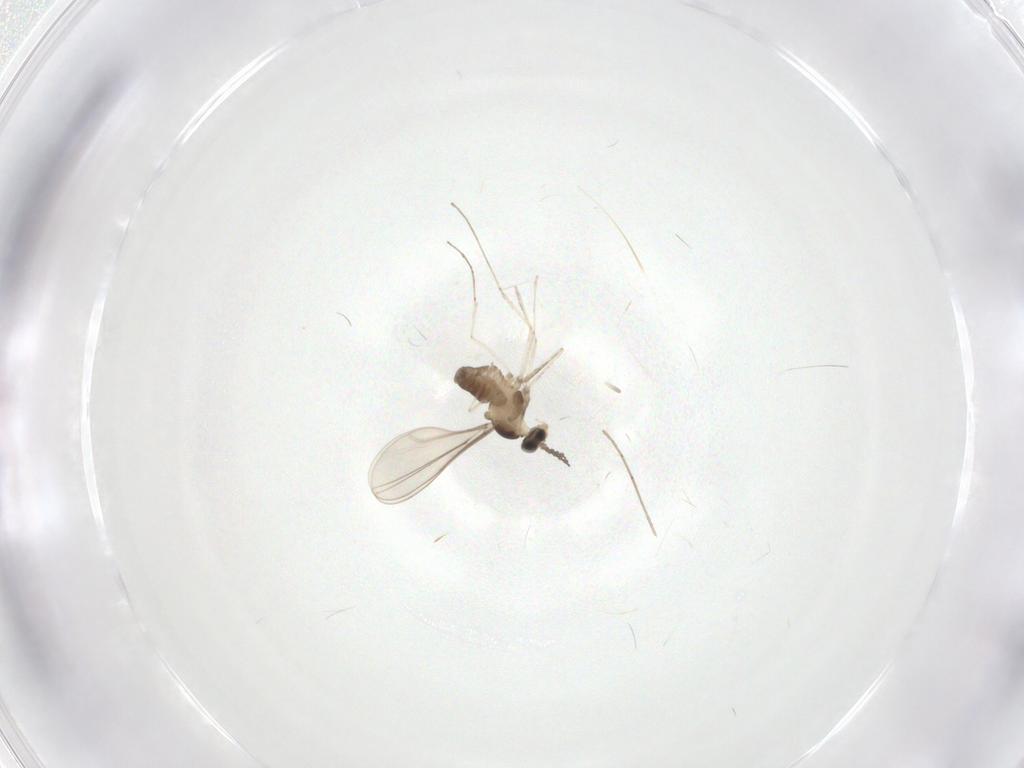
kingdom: Animalia
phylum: Arthropoda
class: Insecta
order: Diptera
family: Cecidomyiidae
